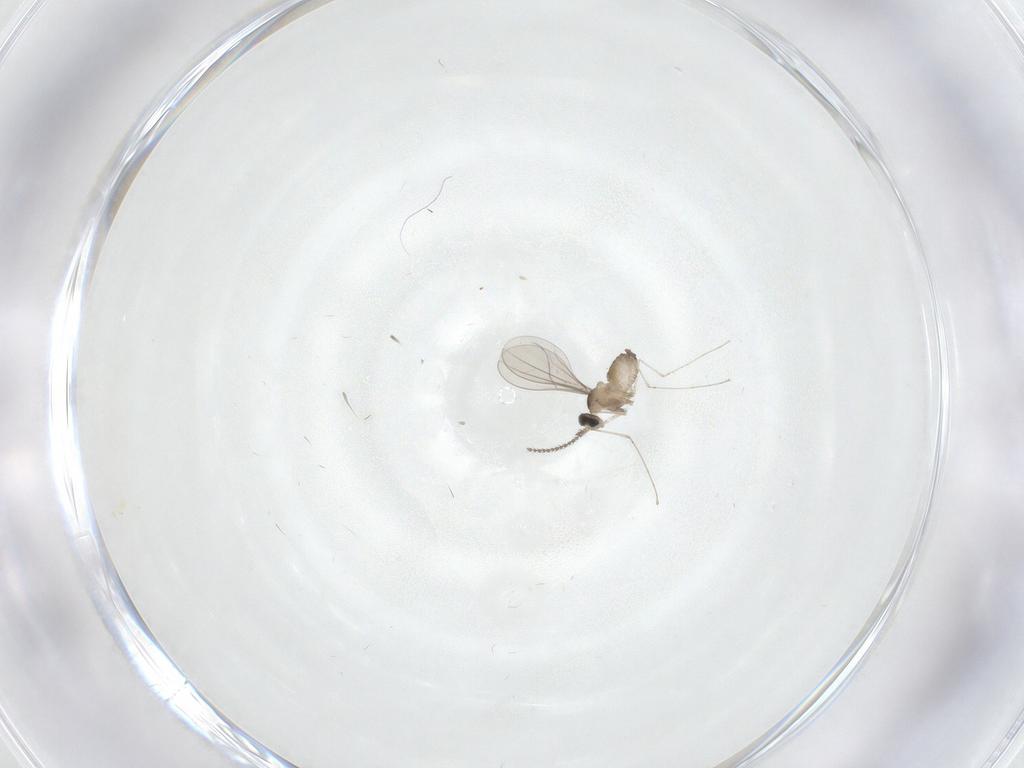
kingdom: Animalia
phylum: Arthropoda
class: Insecta
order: Diptera
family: Cecidomyiidae
